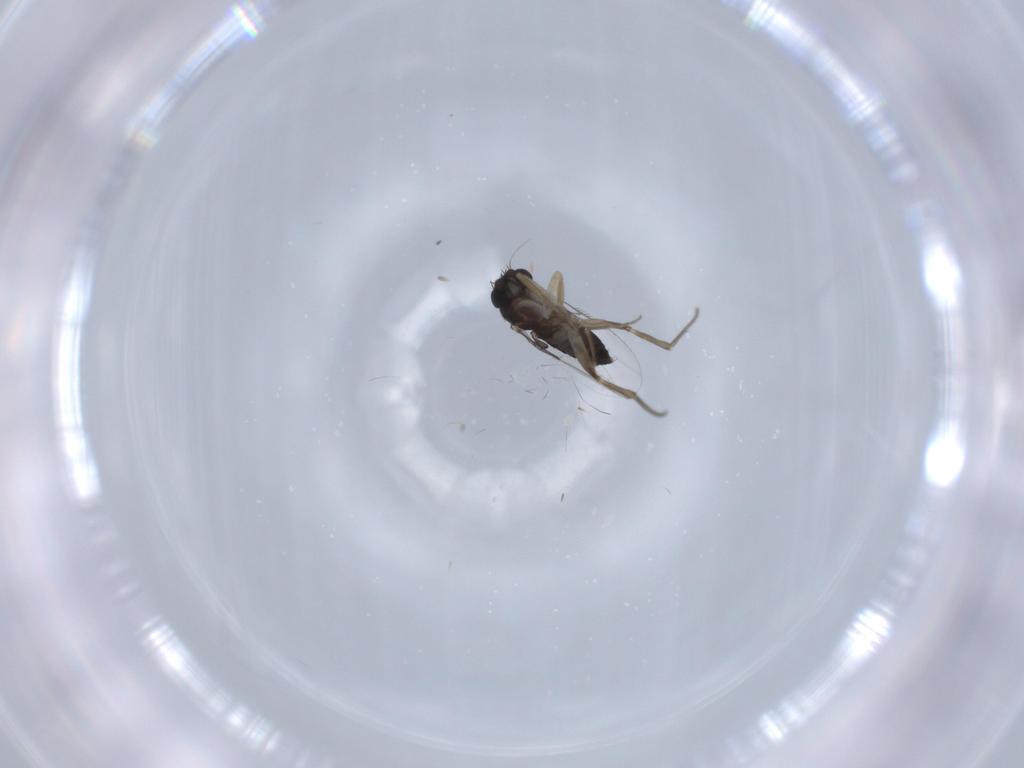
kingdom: Animalia
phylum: Arthropoda
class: Insecta
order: Diptera
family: Phoridae
